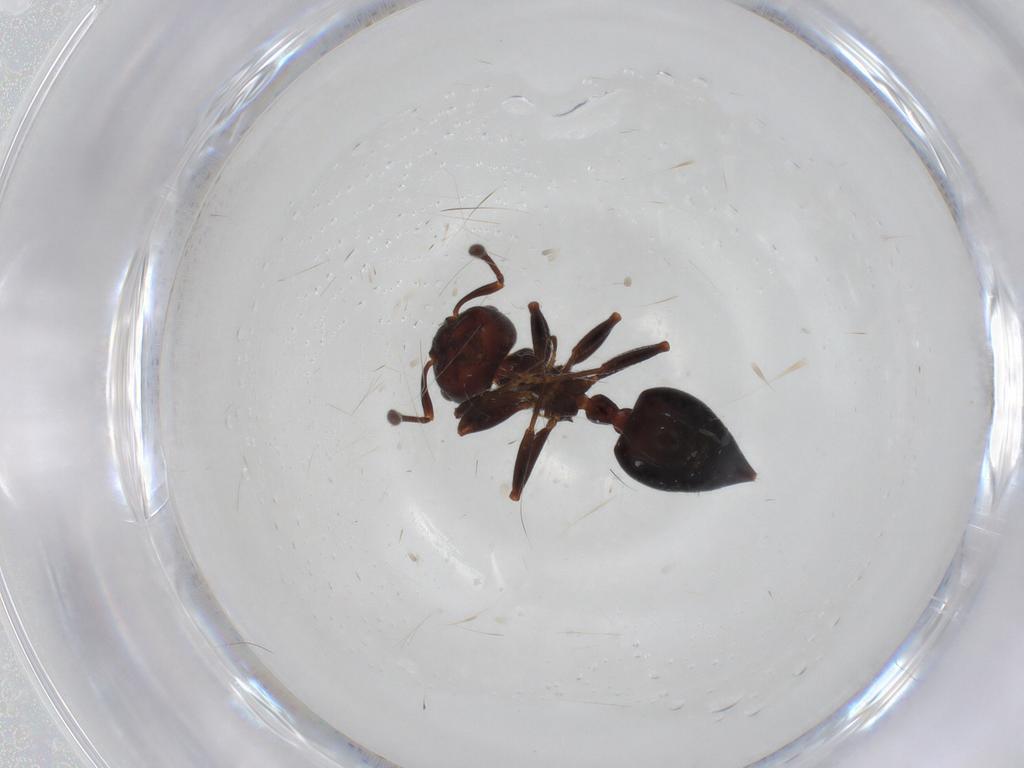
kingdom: Animalia
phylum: Arthropoda
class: Insecta
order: Hymenoptera
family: Formicidae
